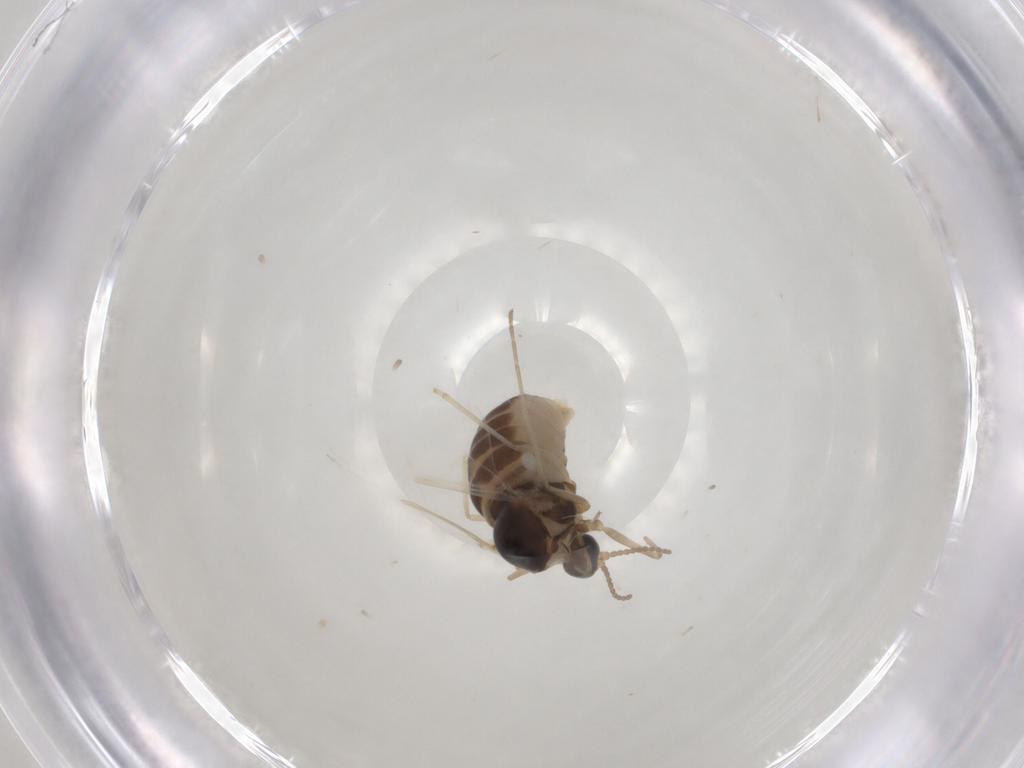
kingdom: Animalia
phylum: Arthropoda
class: Insecta
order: Diptera
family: Cecidomyiidae
